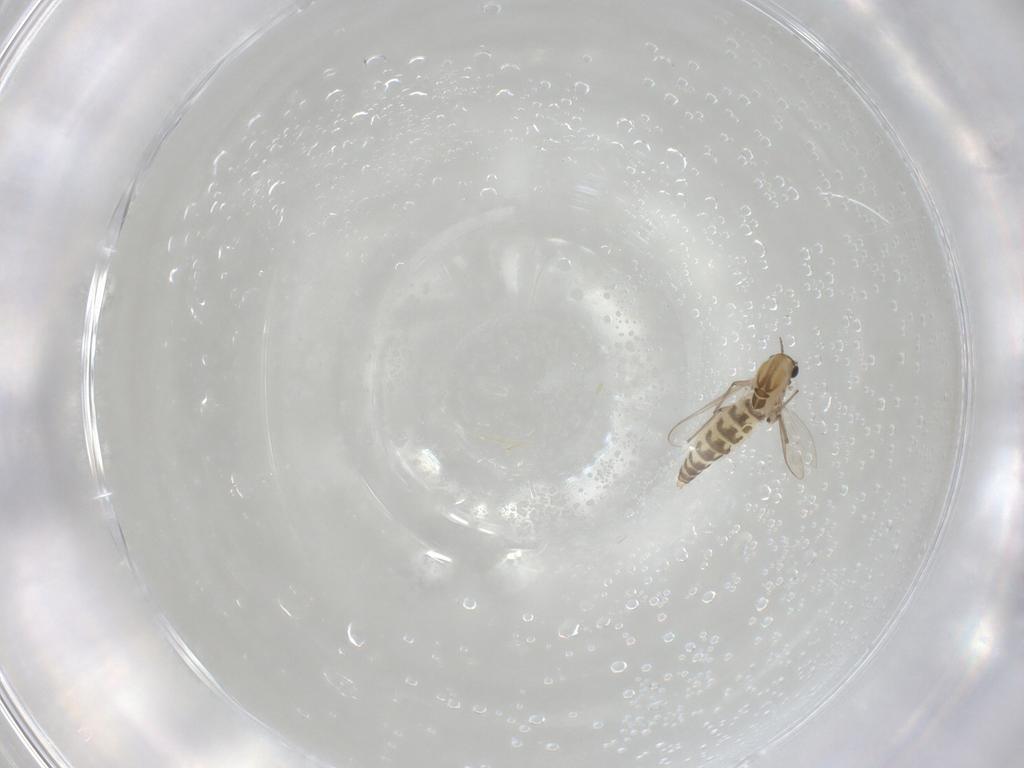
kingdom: Animalia
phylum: Arthropoda
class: Insecta
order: Diptera
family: Chironomidae
